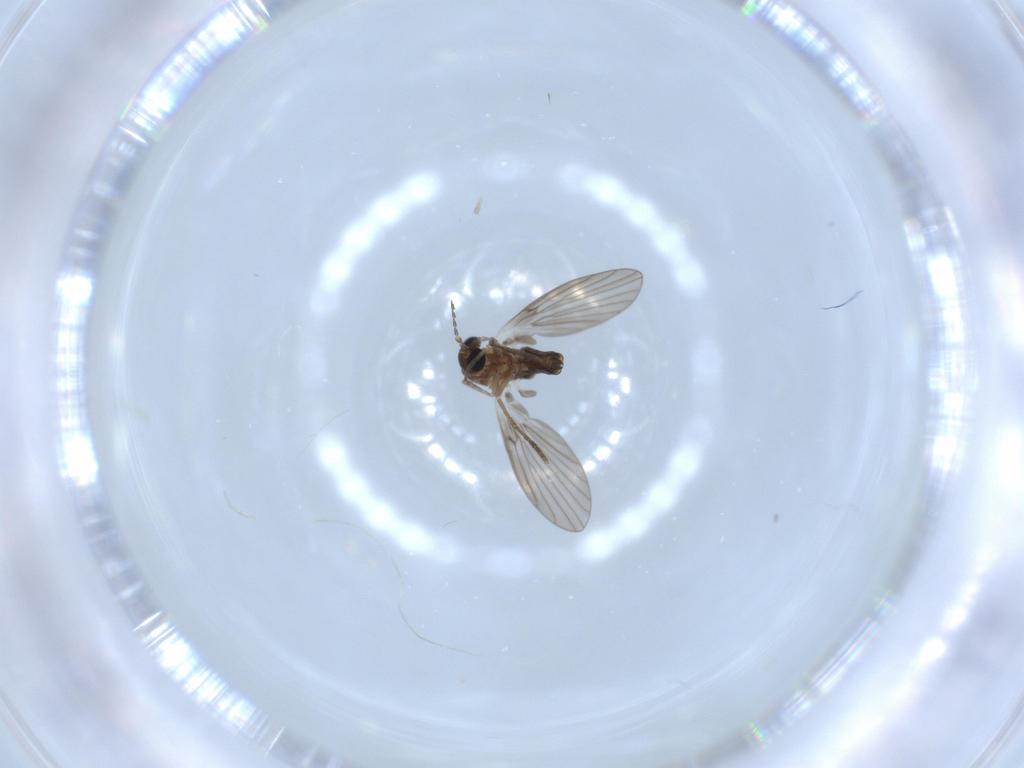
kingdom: Animalia
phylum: Arthropoda
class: Insecta
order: Diptera
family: Psychodidae
